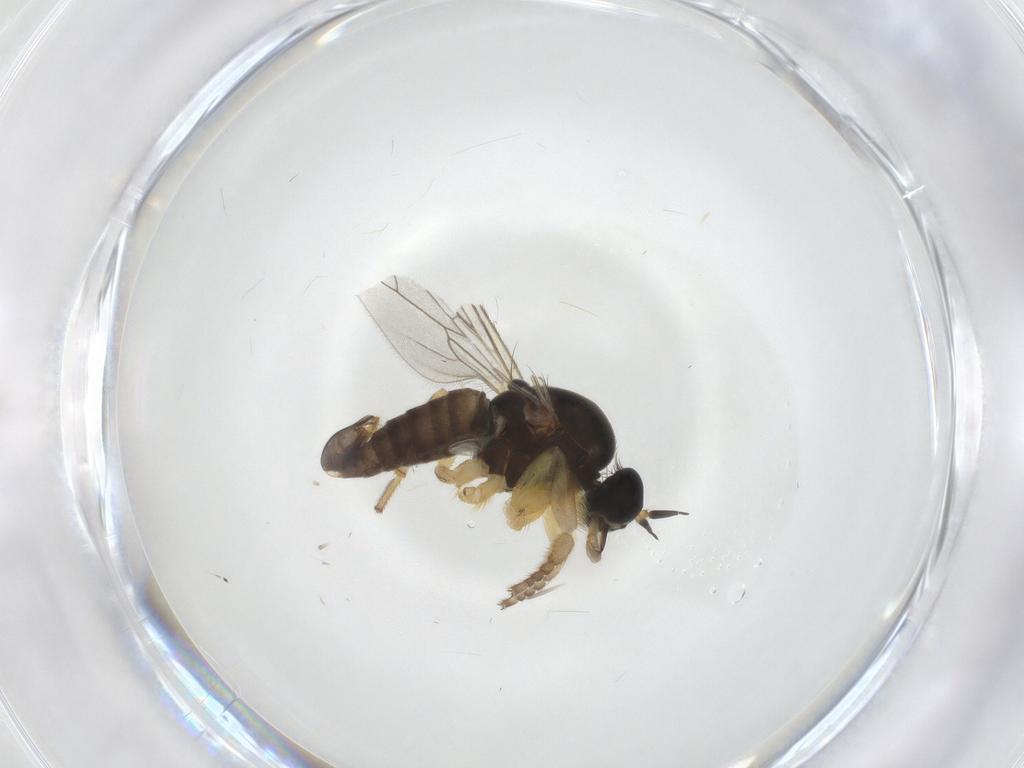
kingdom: Animalia
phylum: Arthropoda
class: Insecta
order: Diptera
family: Empididae
